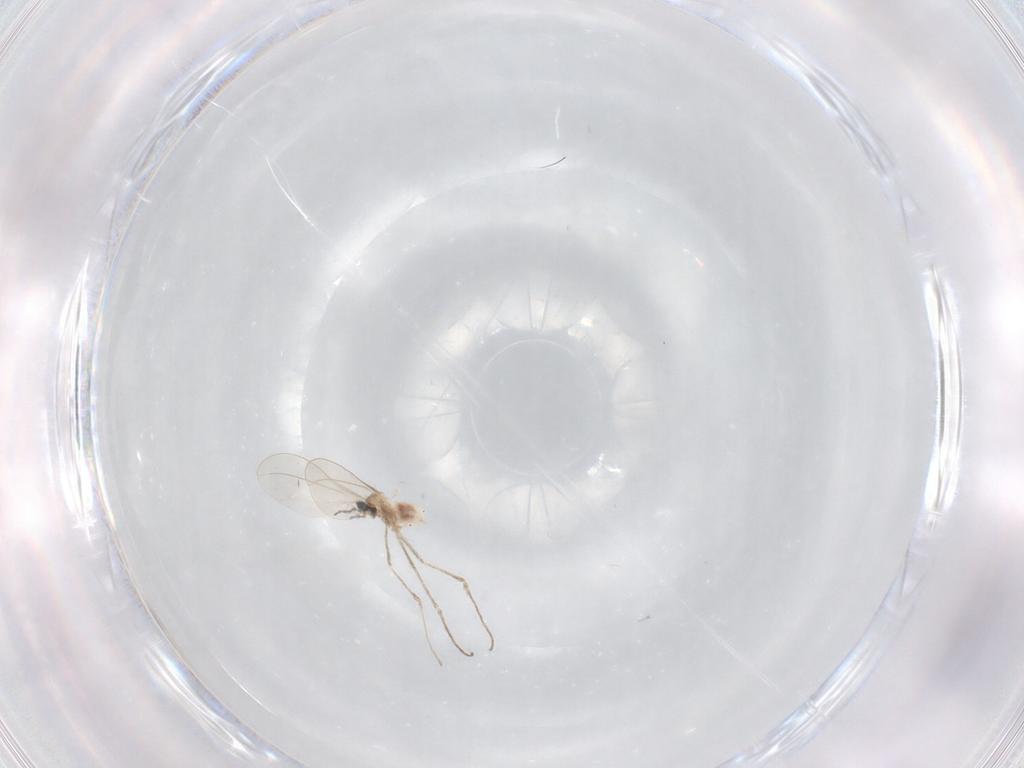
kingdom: Animalia
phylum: Arthropoda
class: Insecta
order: Diptera
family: Cecidomyiidae
